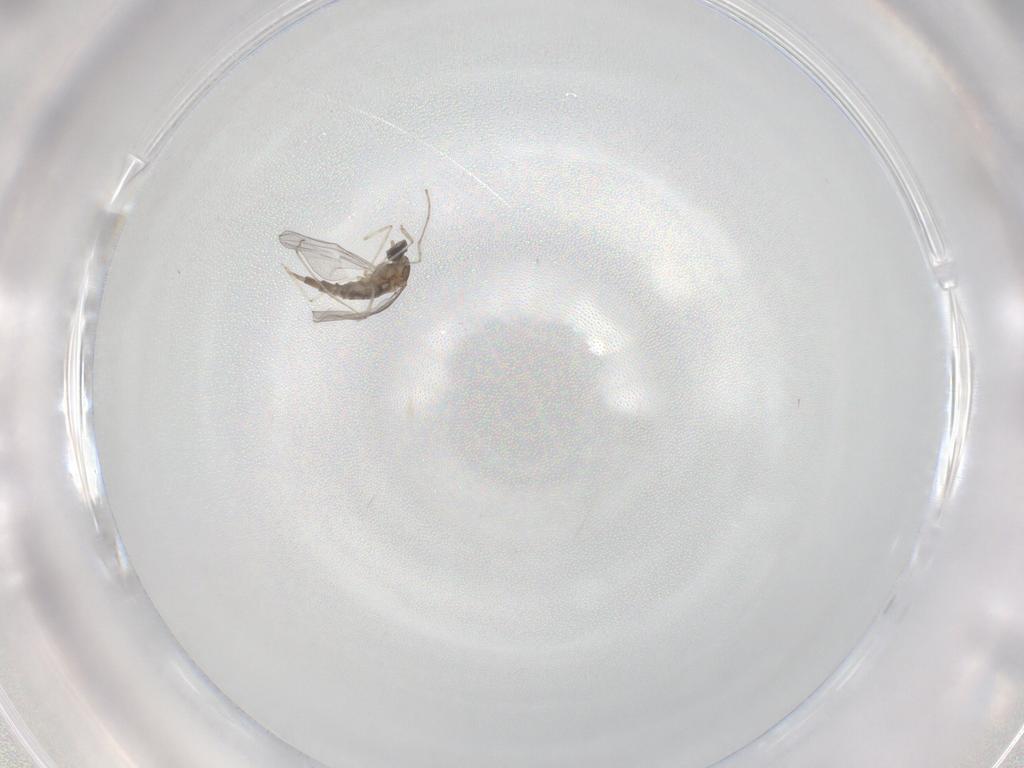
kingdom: Animalia
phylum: Arthropoda
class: Insecta
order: Diptera
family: Cecidomyiidae
